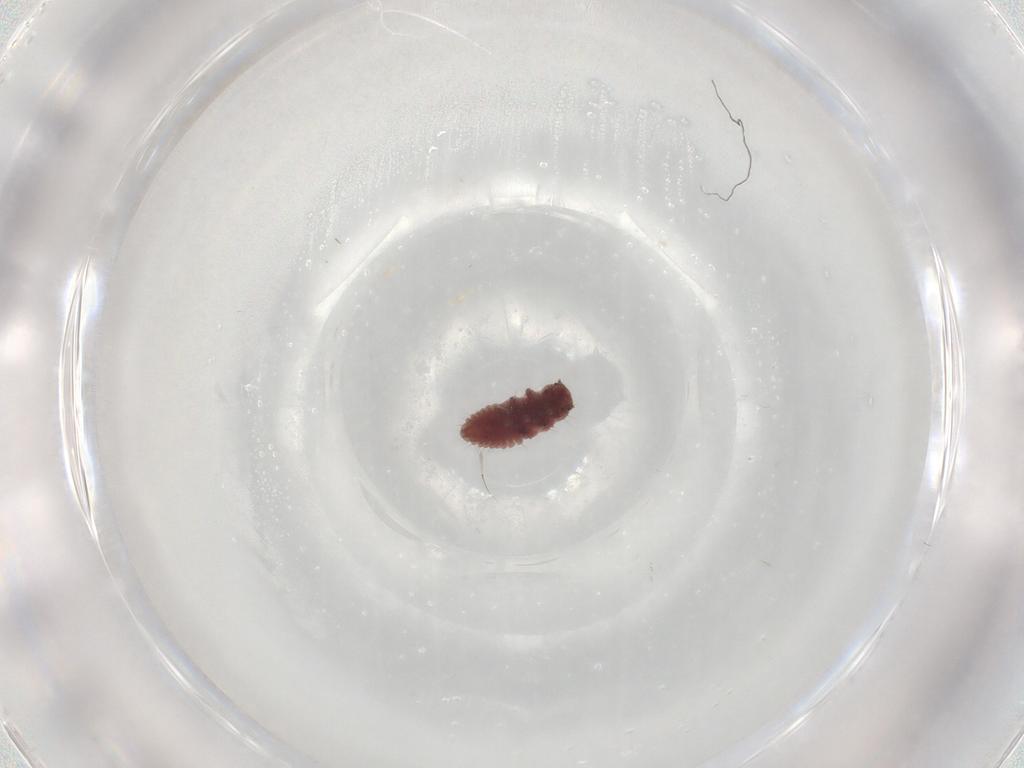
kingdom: Animalia
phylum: Arthropoda
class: Insecta
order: Coleoptera
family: Coccinellidae
